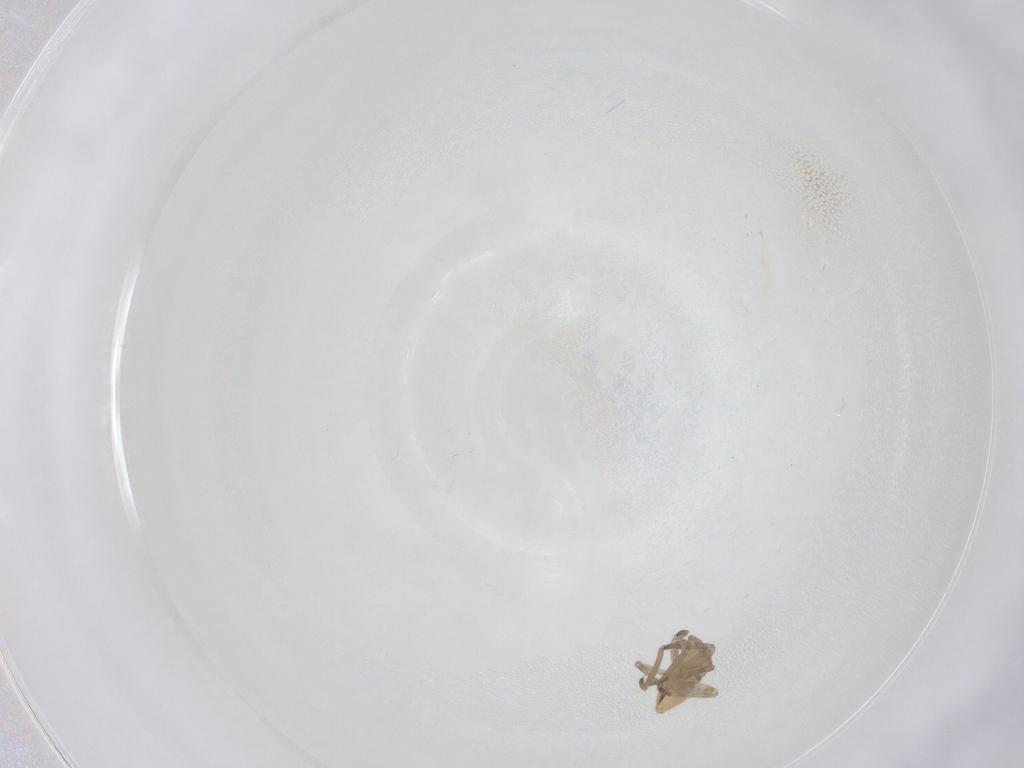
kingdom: Animalia
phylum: Arthropoda
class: Insecta
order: Hemiptera
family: Miridae
